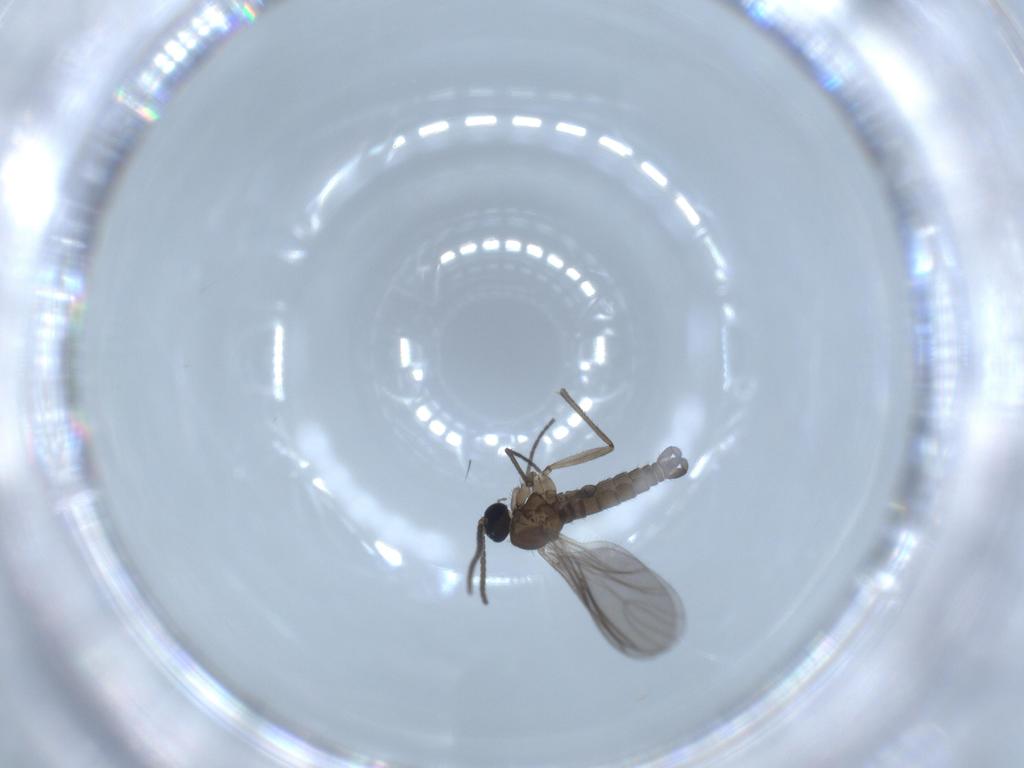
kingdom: Animalia
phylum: Arthropoda
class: Insecta
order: Diptera
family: Sciaridae
